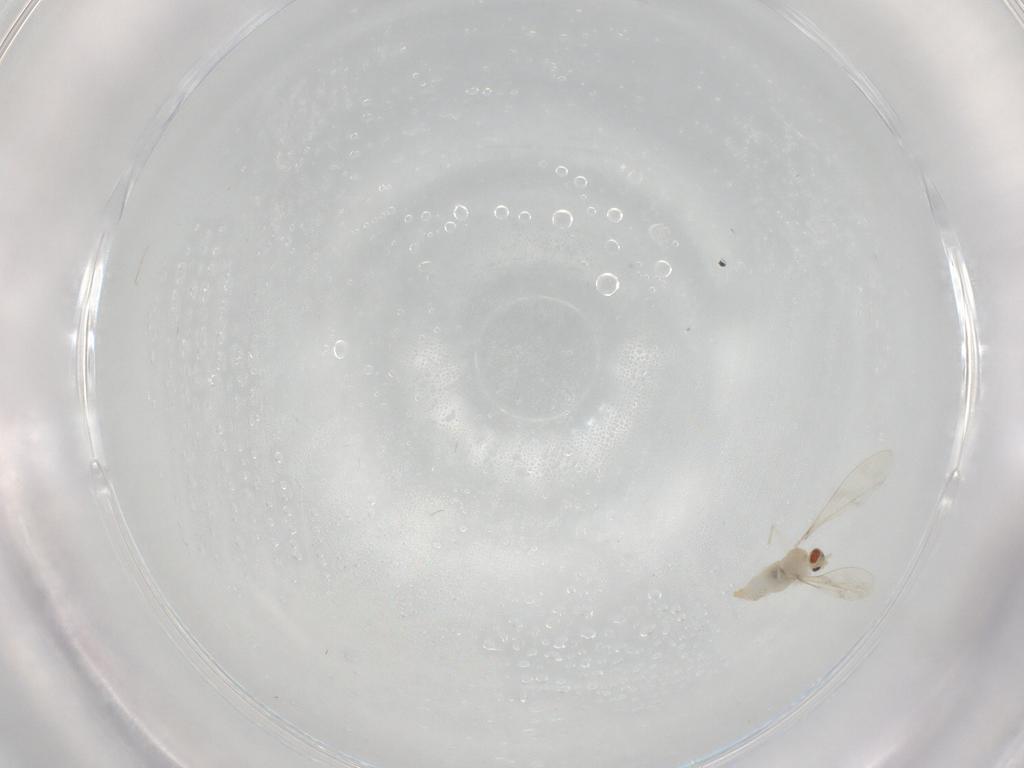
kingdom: Animalia
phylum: Arthropoda
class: Insecta
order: Diptera
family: Cecidomyiidae
